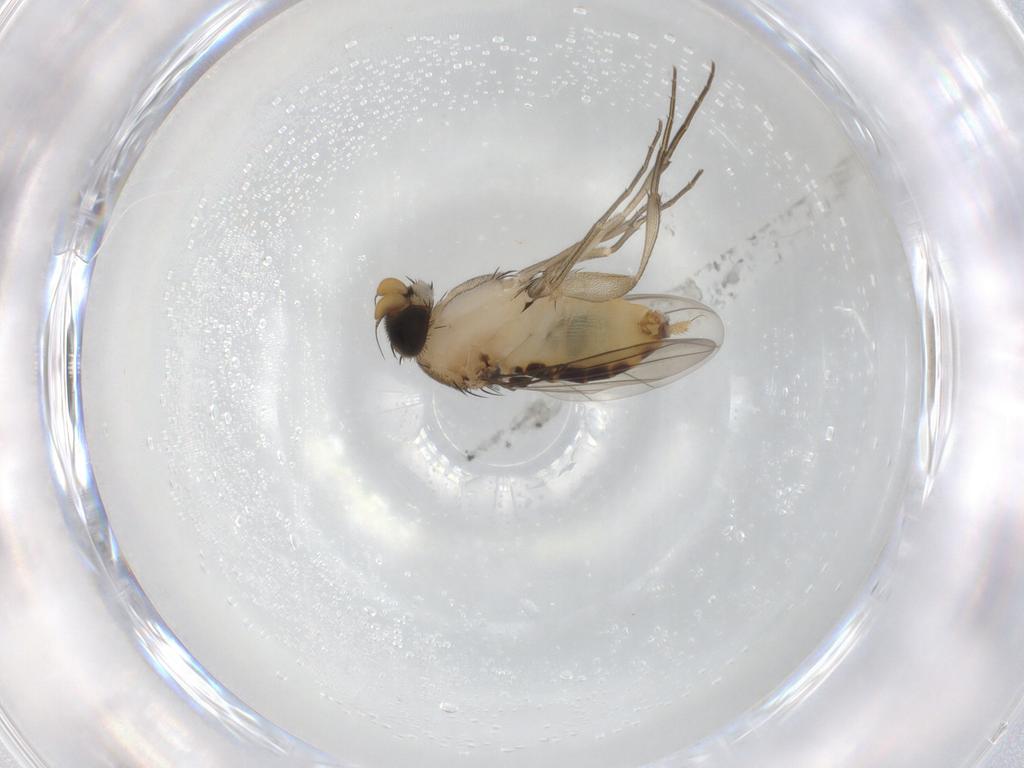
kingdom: Animalia
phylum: Arthropoda
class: Insecta
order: Diptera
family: Phoridae
